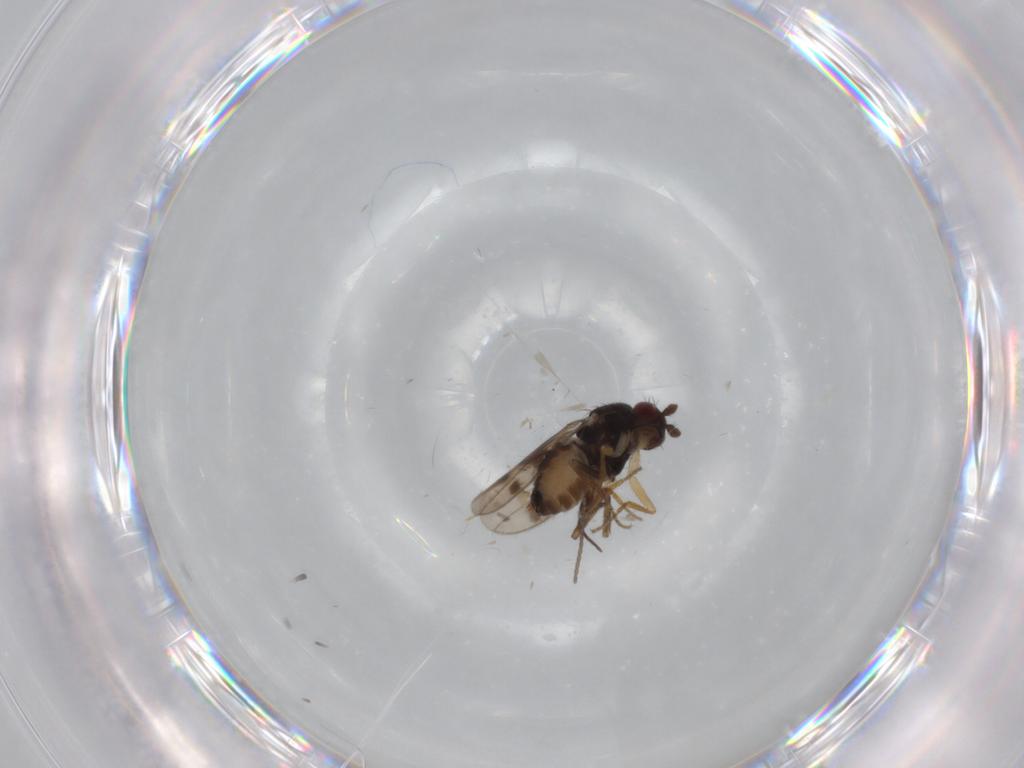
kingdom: Animalia
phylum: Arthropoda
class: Insecta
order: Diptera
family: Sphaeroceridae
